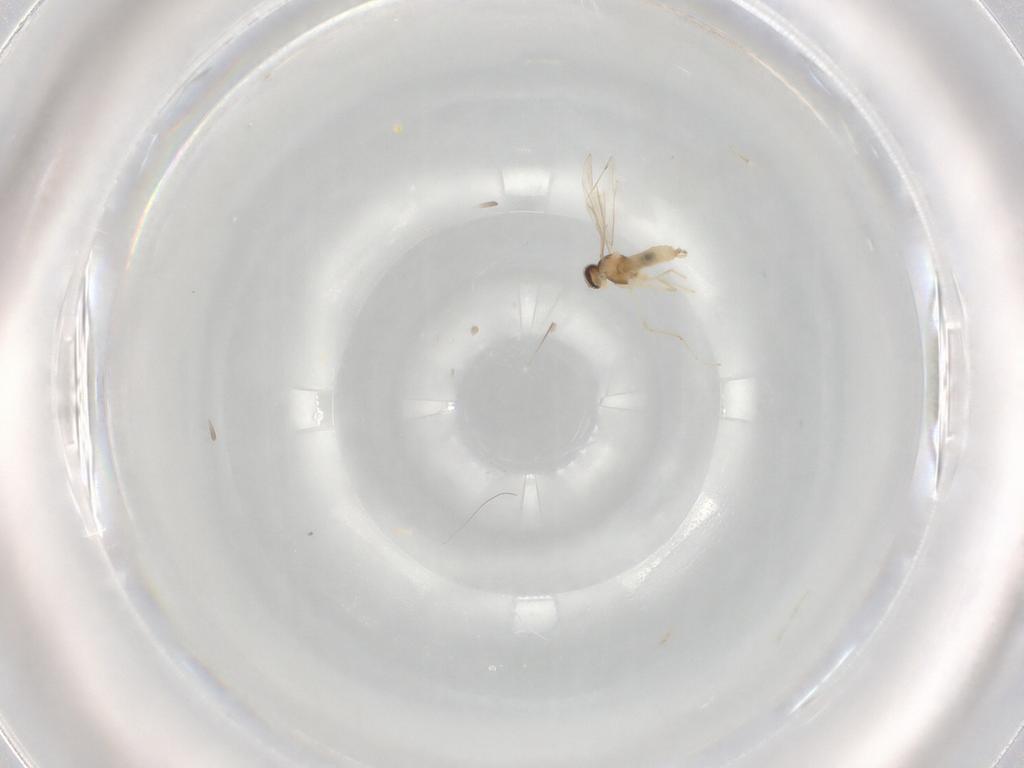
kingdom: Animalia
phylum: Arthropoda
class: Insecta
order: Diptera
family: Cecidomyiidae
